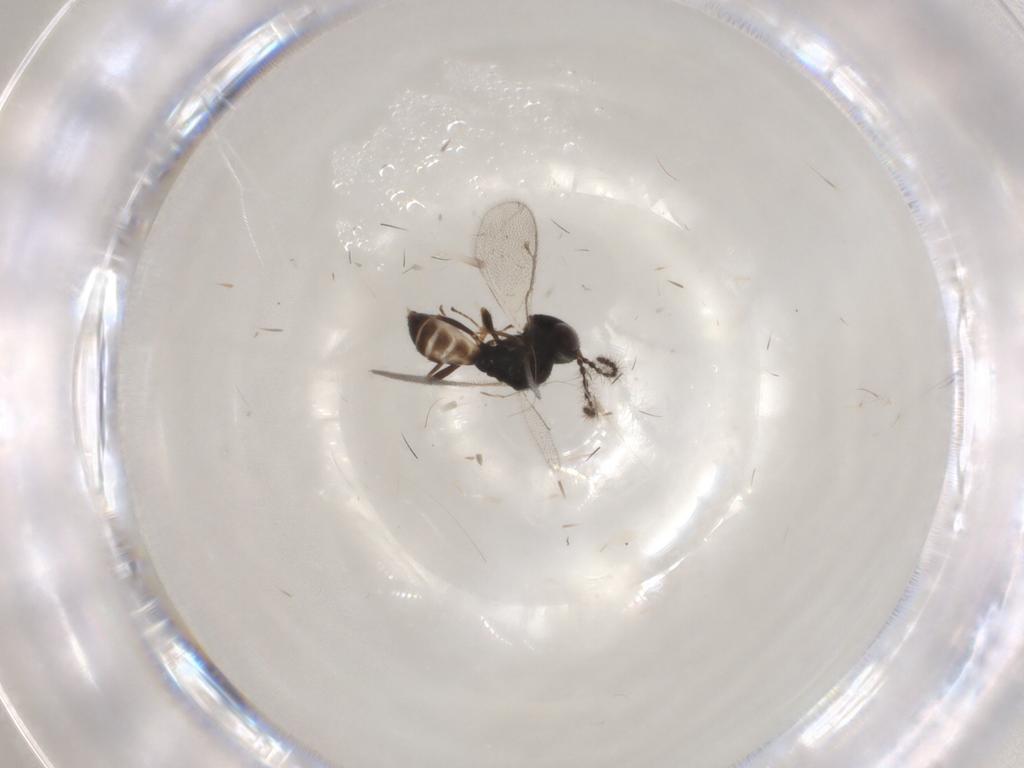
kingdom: Animalia
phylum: Arthropoda
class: Insecta
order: Hymenoptera
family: Pteromalidae
